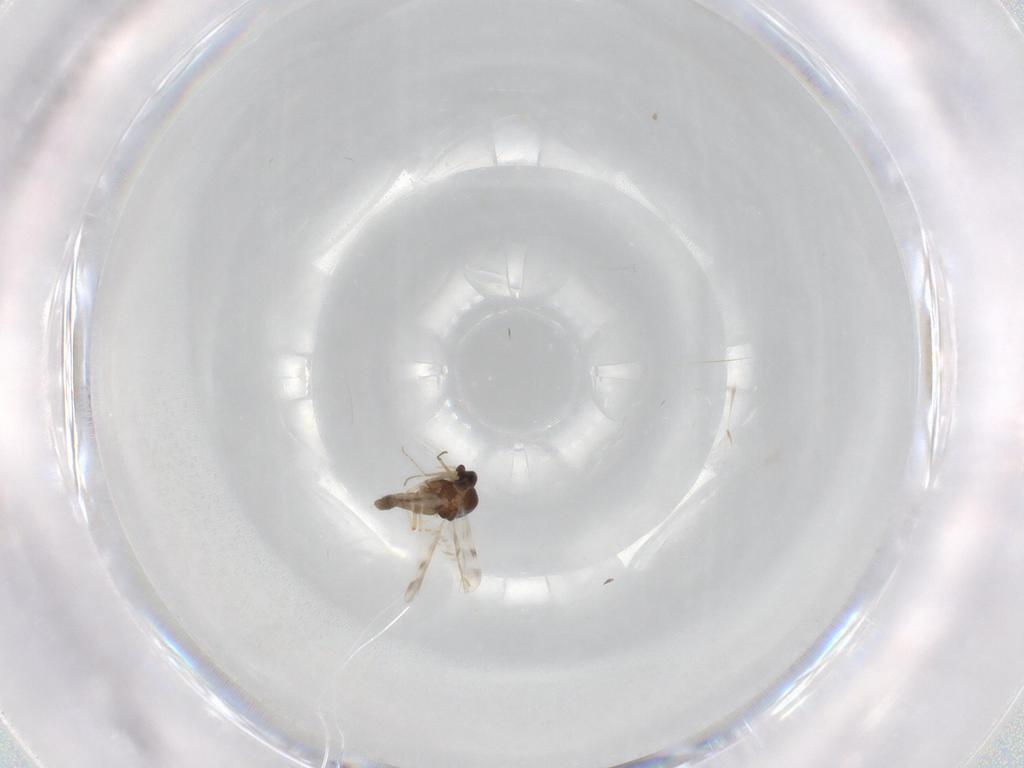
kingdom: Animalia
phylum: Arthropoda
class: Insecta
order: Diptera
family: Ceratopogonidae
